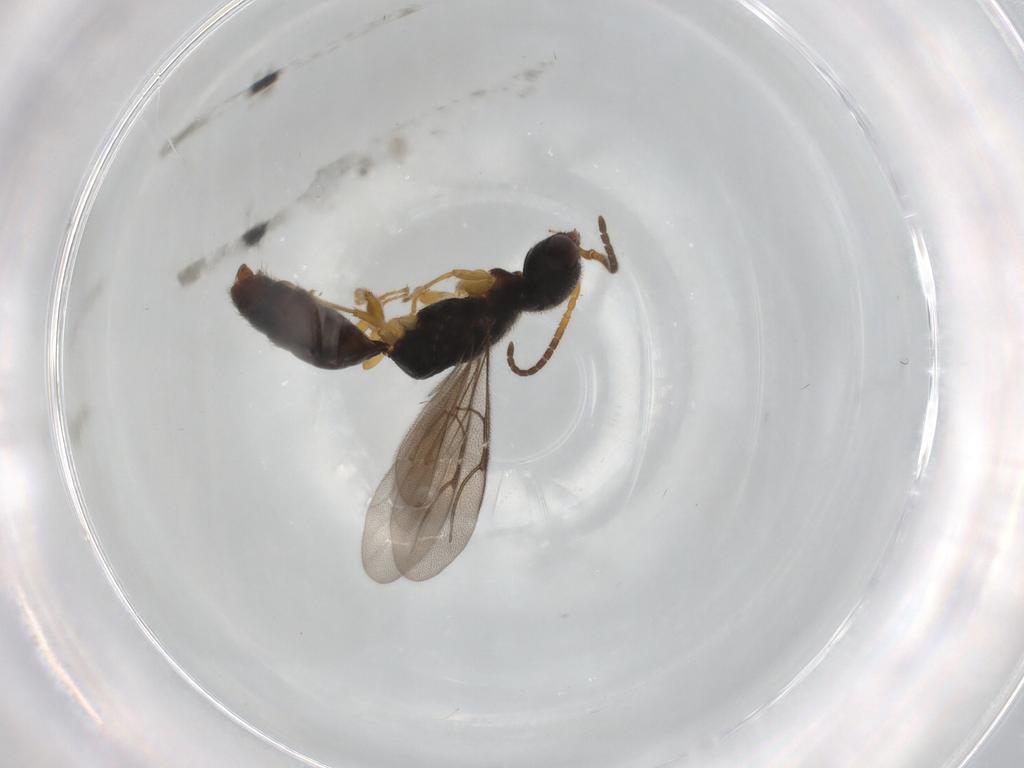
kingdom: Animalia
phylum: Arthropoda
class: Insecta
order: Hymenoptera
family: Bethylidae
